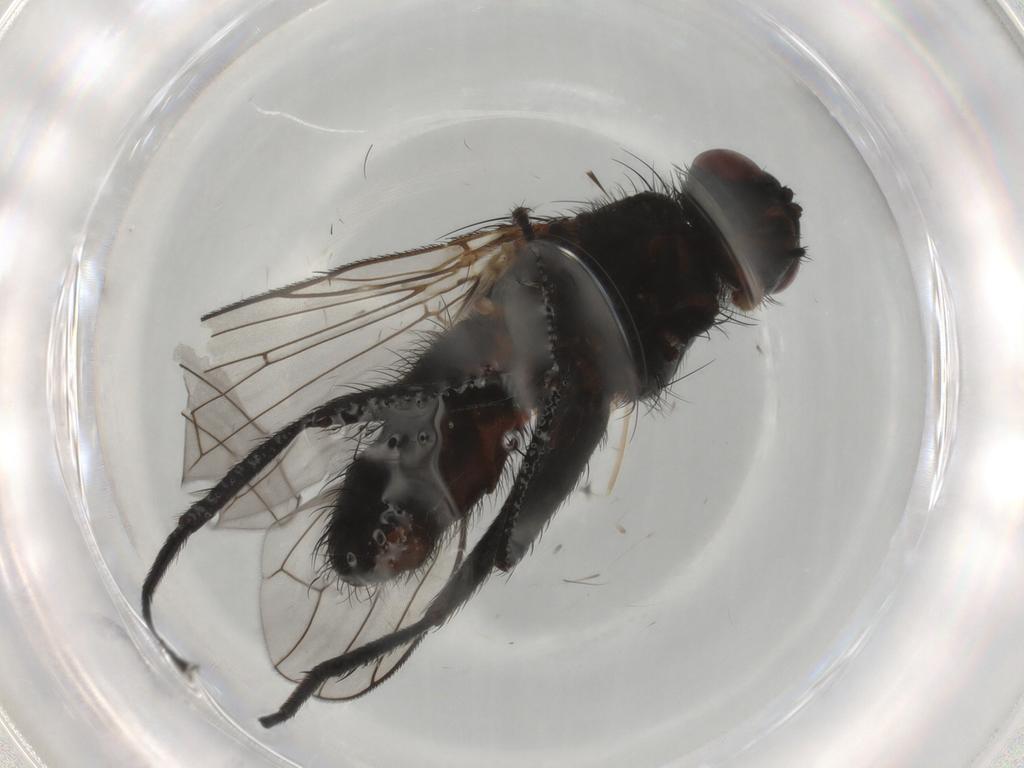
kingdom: Animalia
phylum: Arthropoda
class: Insecta
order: Diptera
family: Anthomyiidae
